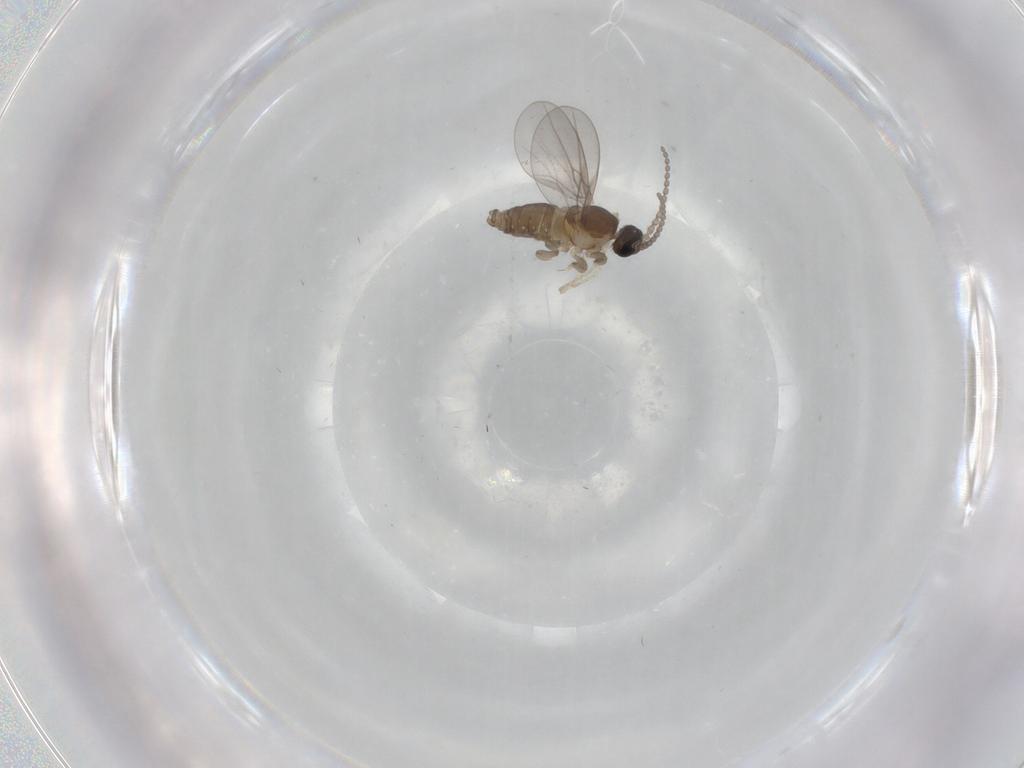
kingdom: Animalia
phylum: Arthropoda
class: Insecta
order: Diptera
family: Cecidomyiidae
